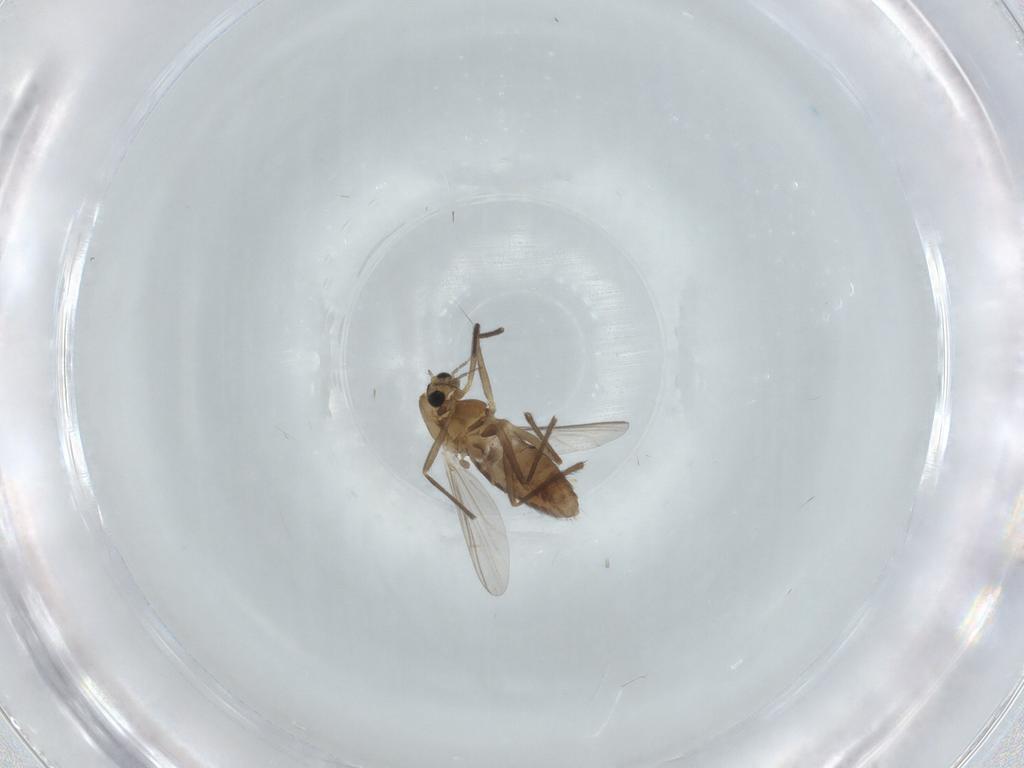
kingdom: Animalia
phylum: Arthropoda
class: Insecta
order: Diptera
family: Chironomidae
